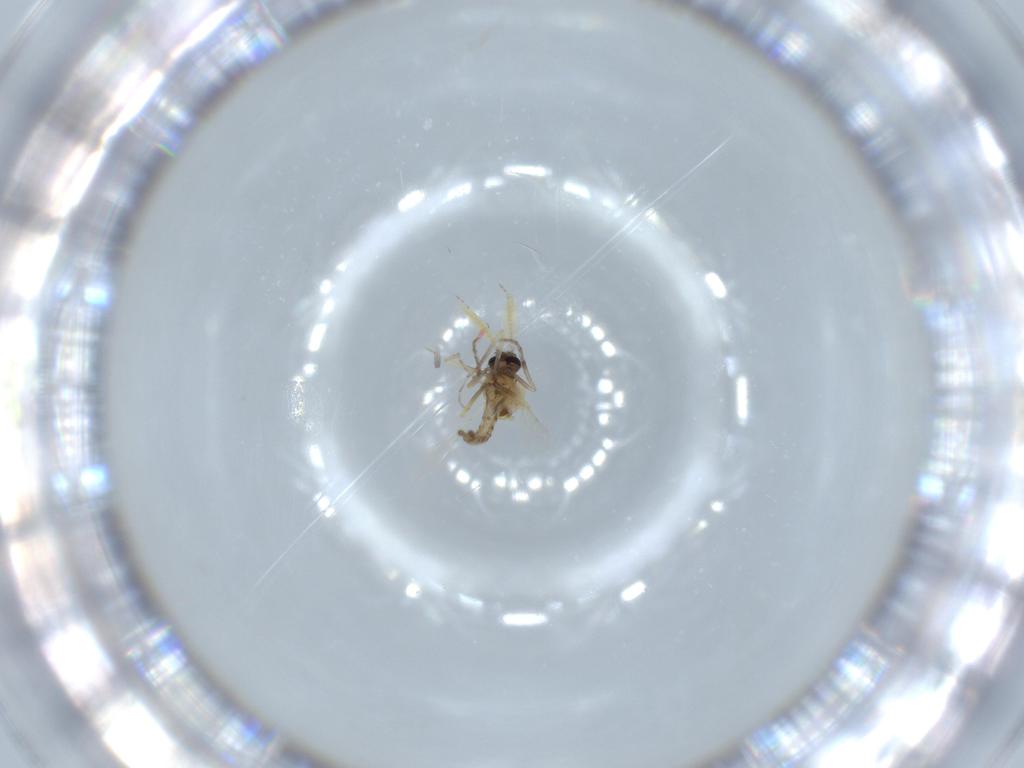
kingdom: Animalia
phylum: Arthropoda
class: Insecta
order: Diptera
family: Ceratopogonidae
